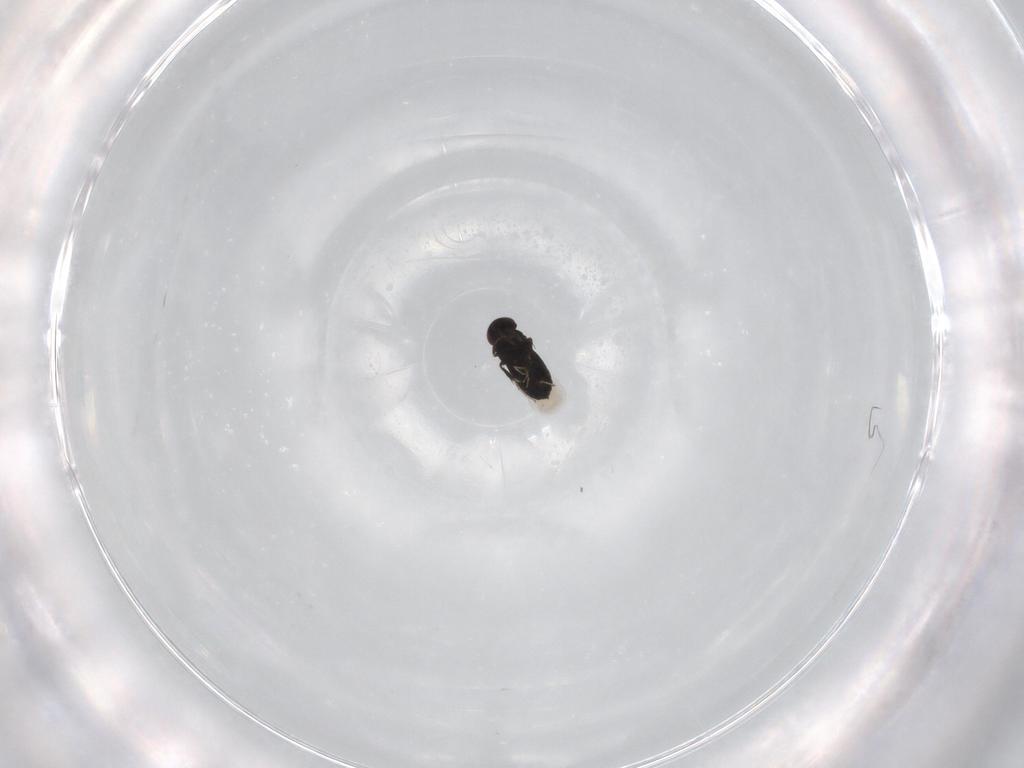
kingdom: Animalia
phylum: Arthropoda
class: Insecta
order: Hymenoptera
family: Signiphoridae
